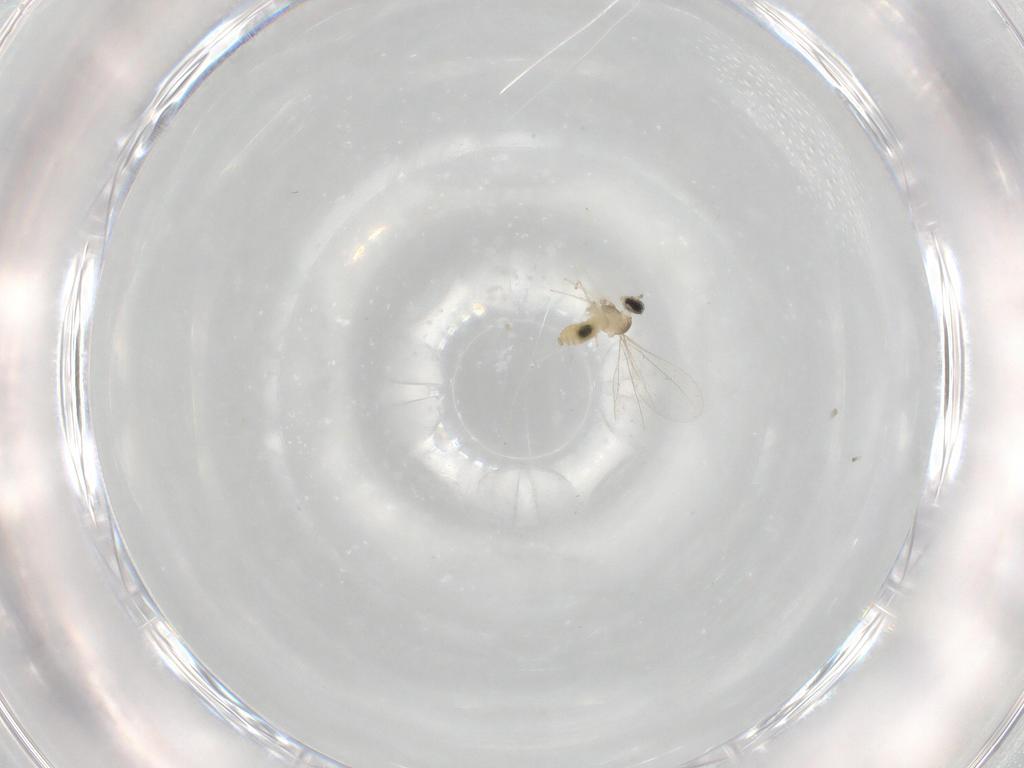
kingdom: Animalia
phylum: Arthropoda
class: Insecta
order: Diptera
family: Cecidomyiidae
